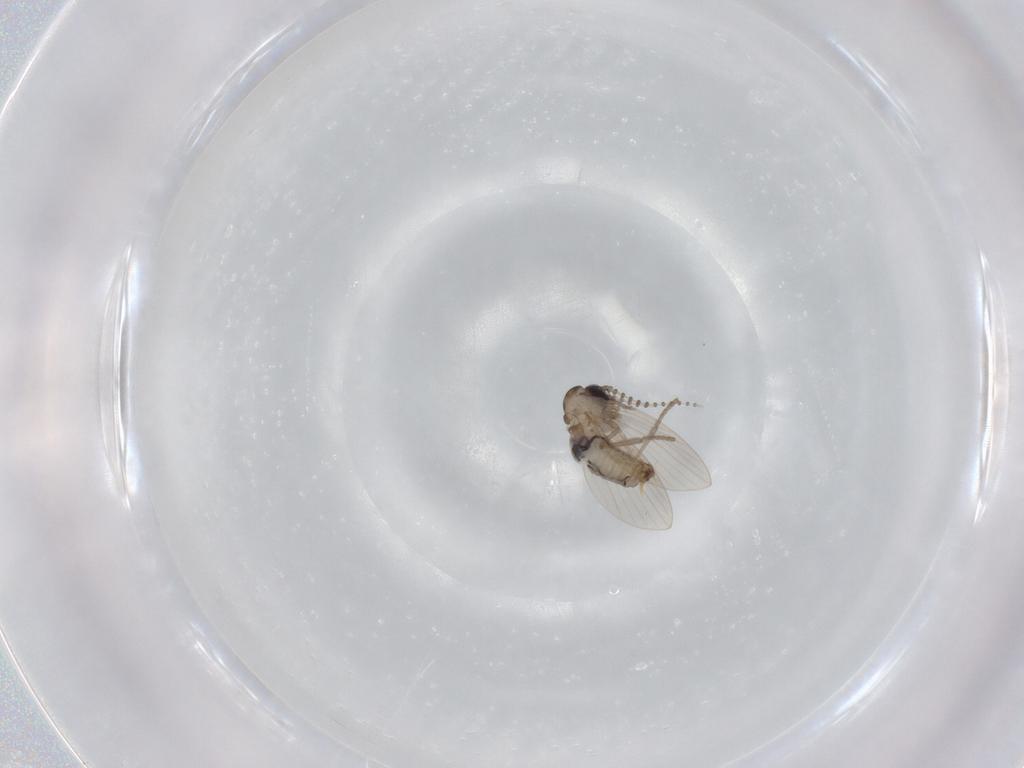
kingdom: Animalia
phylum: Arthropoda
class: Insecta
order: Diptera
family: Psychodidae
